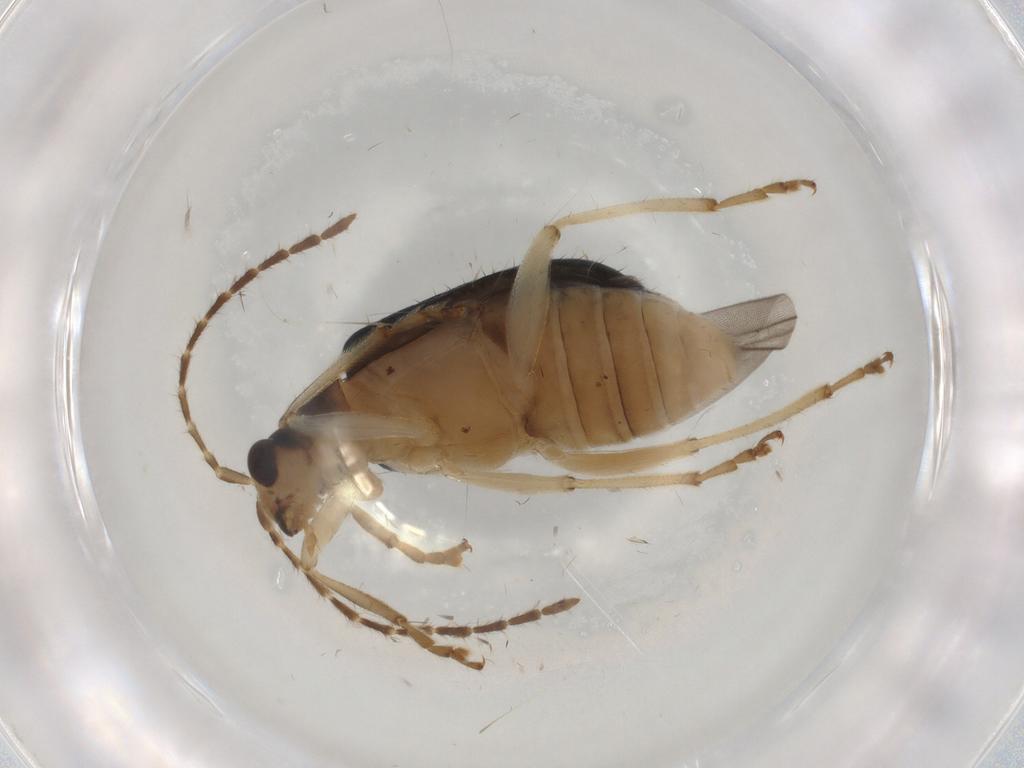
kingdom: Animalia
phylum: Arthropoda
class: Insecta
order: Coleoptera
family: Chrysomelidae
